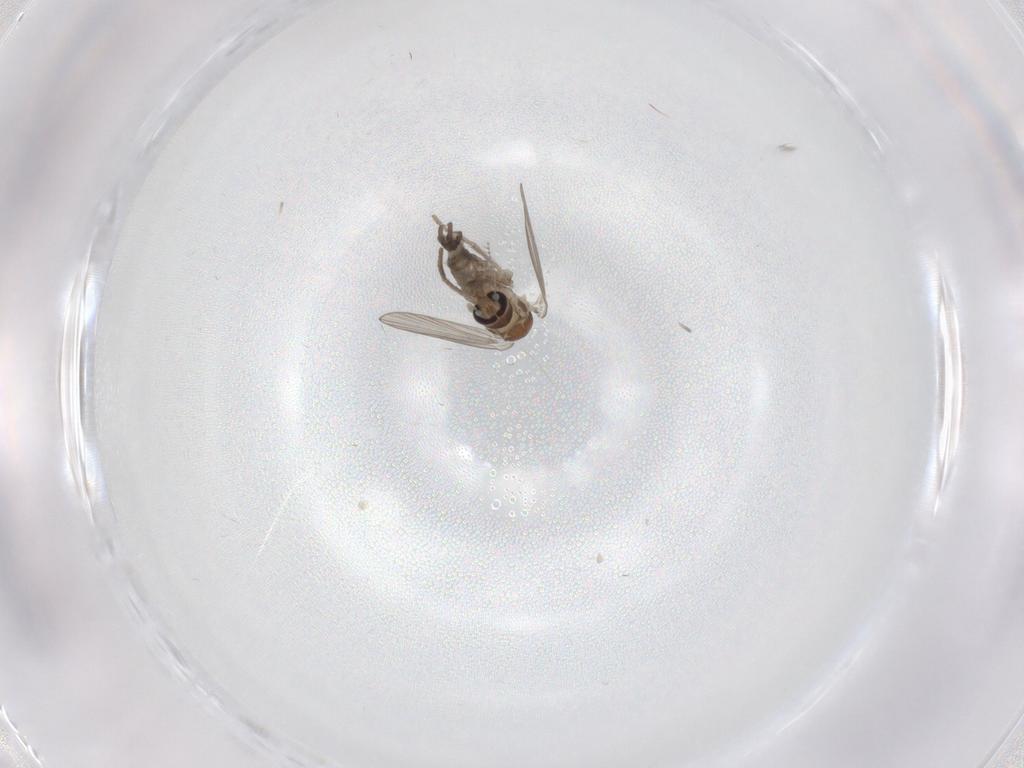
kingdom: Animalia
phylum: Arthropoda
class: Insecta
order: Diptera
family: Psychodidae
